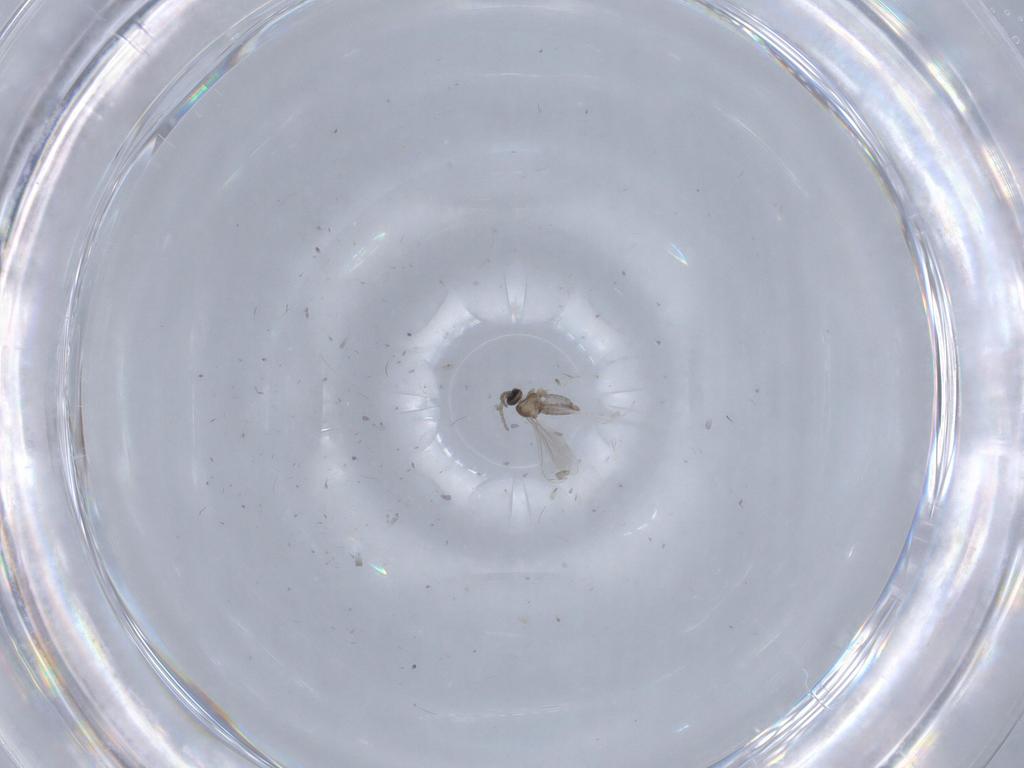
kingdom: Animalia
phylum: Arthropoda
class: Insecta
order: Diptera
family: Cecidomyiidae
